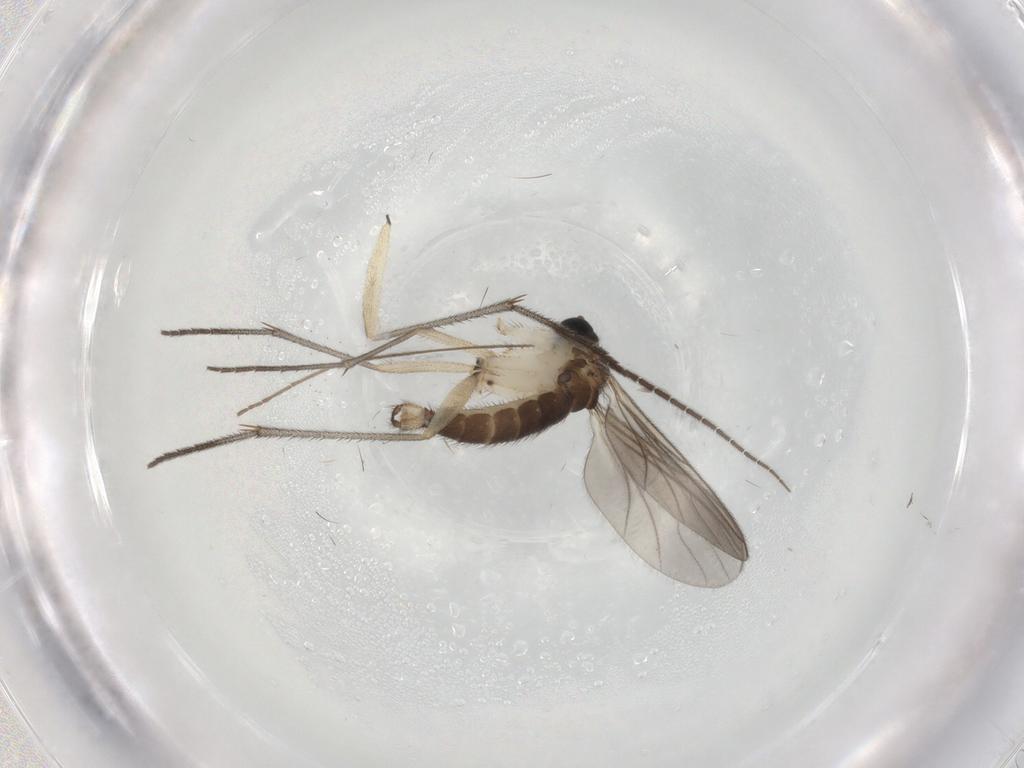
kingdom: Animalia
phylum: Arthropoda
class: Insecta
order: Diptera
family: Sciaridae
